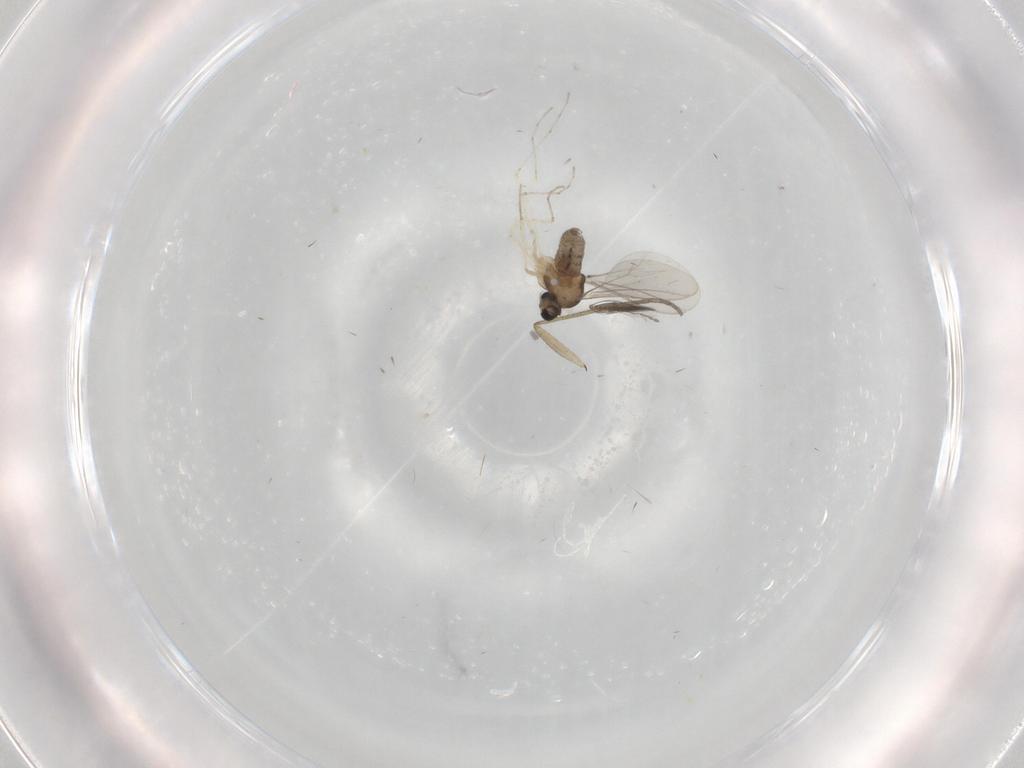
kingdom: Animalia
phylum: Arthropoda
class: Insecta
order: Diptera
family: Cecidomyiidae
